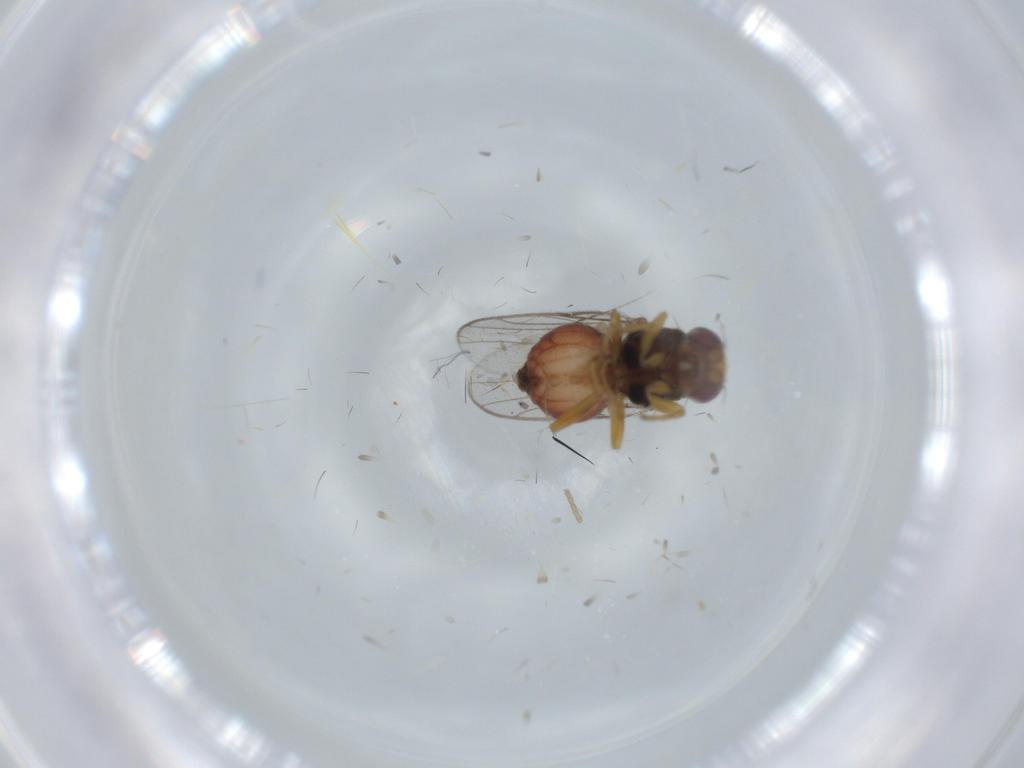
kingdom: Animalia
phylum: Arthropoda
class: Insecta
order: Diptera
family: Chloropidae
